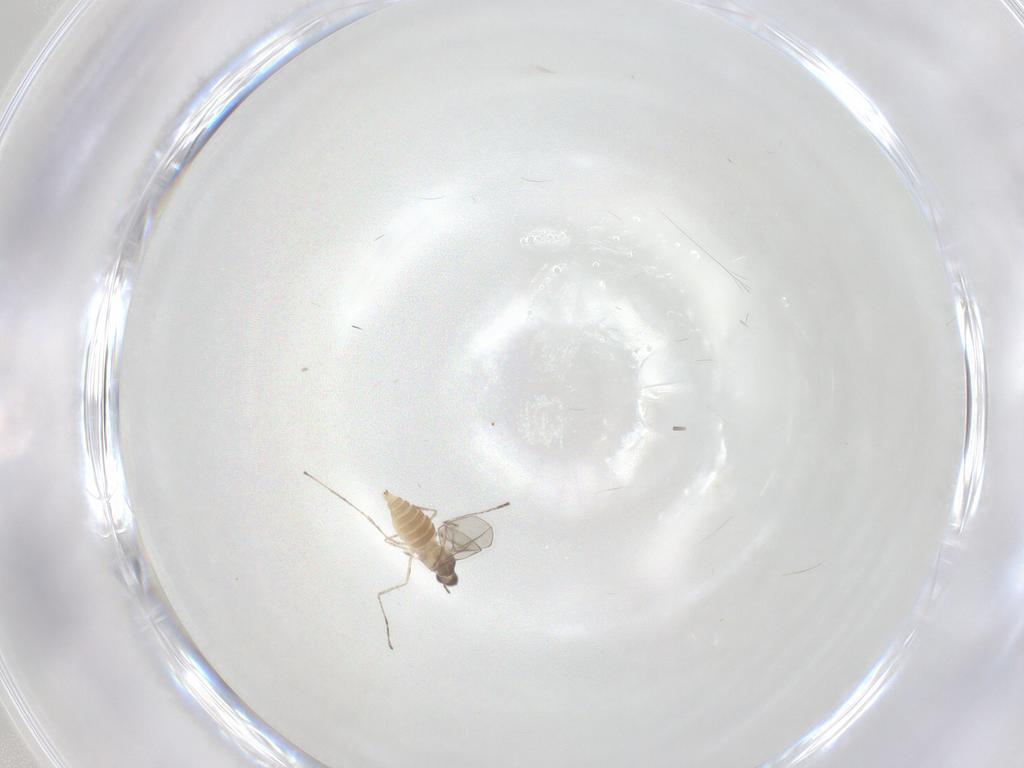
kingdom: Animalia
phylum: Arthropoda
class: Insecta
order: Diptera
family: Cecidomyiidae
